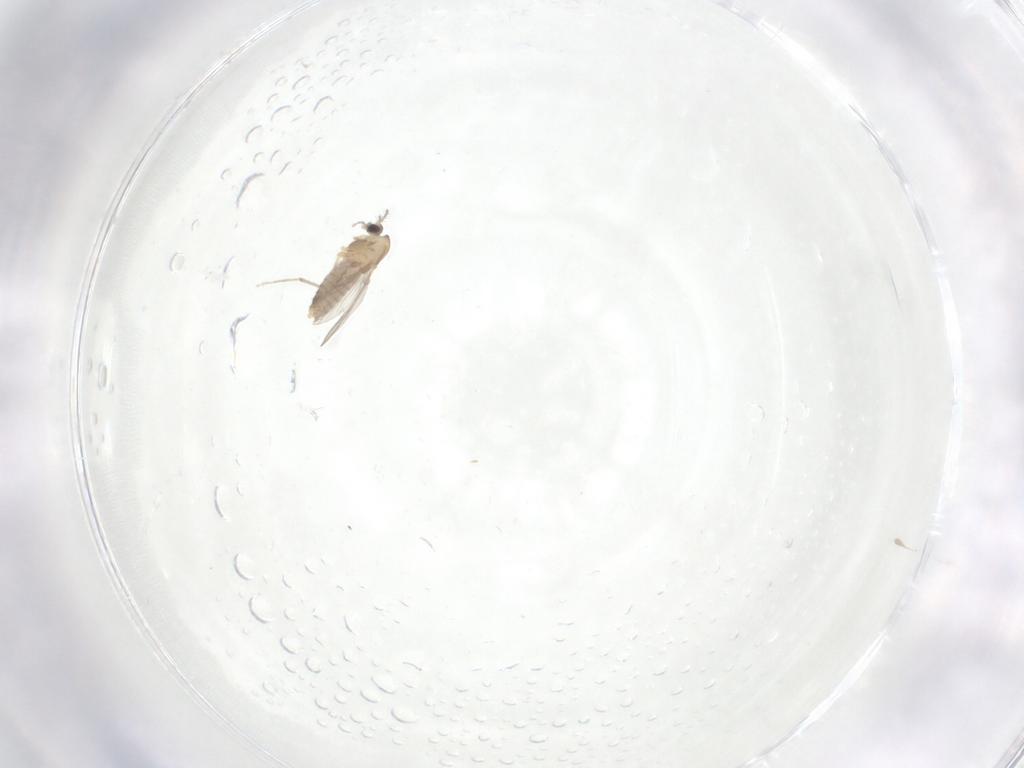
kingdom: Animalia
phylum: Arthropoda
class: Insecta
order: Diptera
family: Chironomidae
